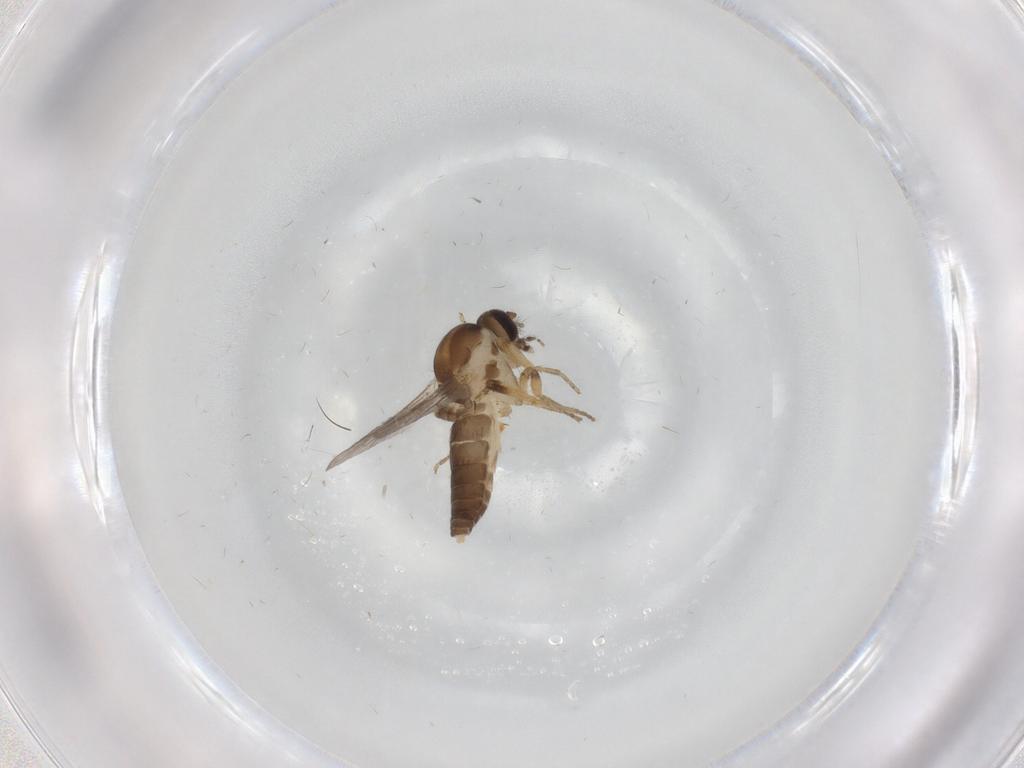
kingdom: Animalia
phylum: Arthropoda
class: Insecta
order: Diptera
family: Ceratopogonidae
